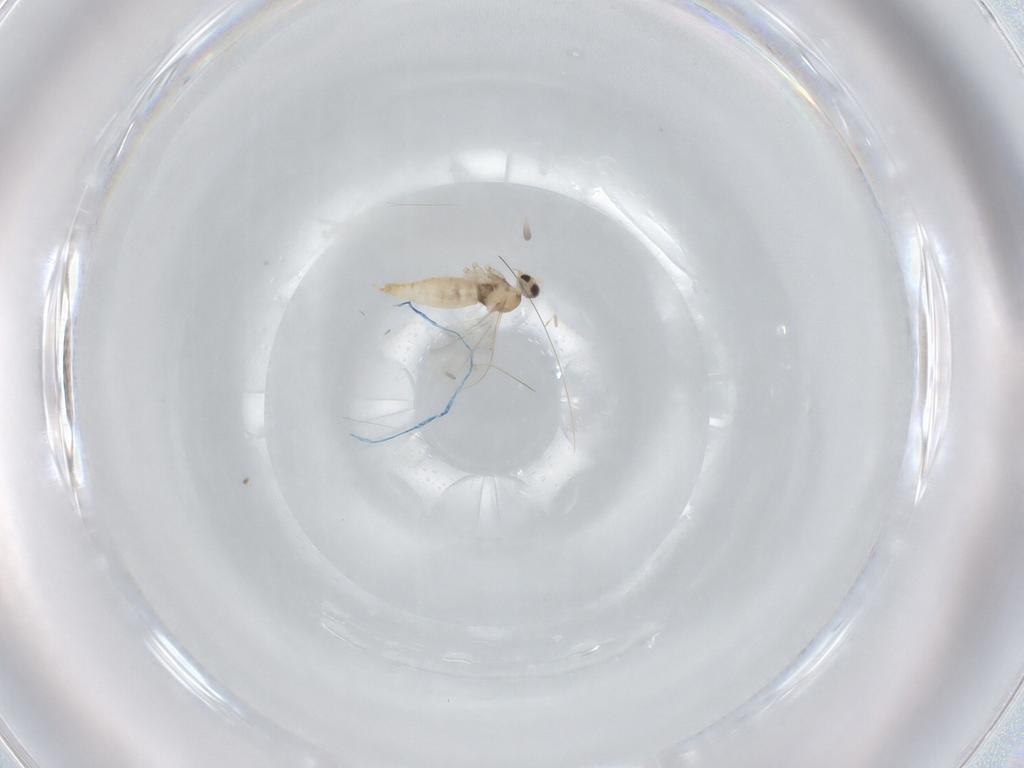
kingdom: Animalia
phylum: Arthropoda
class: Insecta
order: Diptera
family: Cecidomyiidae
